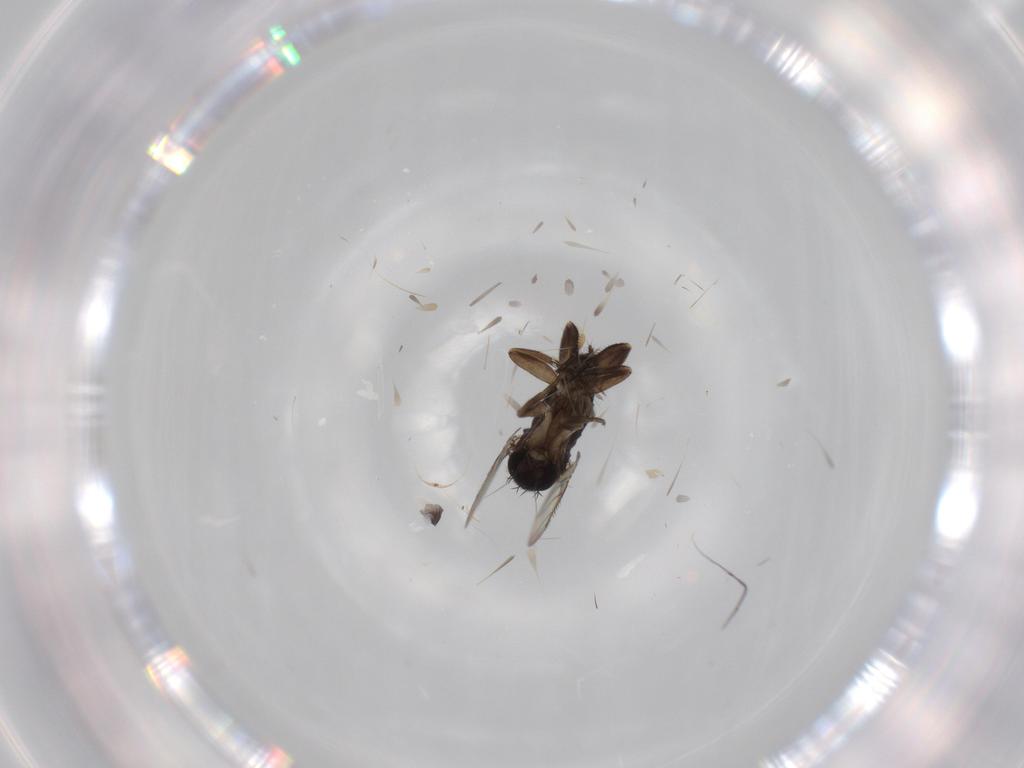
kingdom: Animalia
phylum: Arthropoda
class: Insecta
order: Diptera
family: Phoridae
